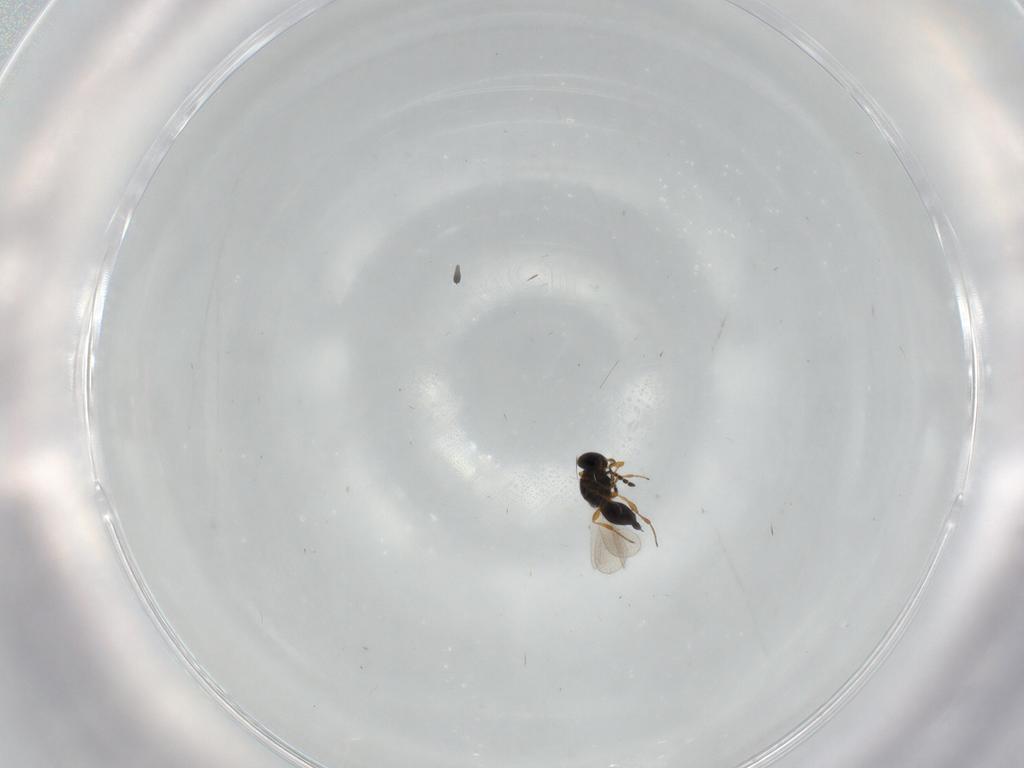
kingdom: Animalia
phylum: Arthropoda
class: Insecta
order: Hymenoptera
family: Platygastridae
